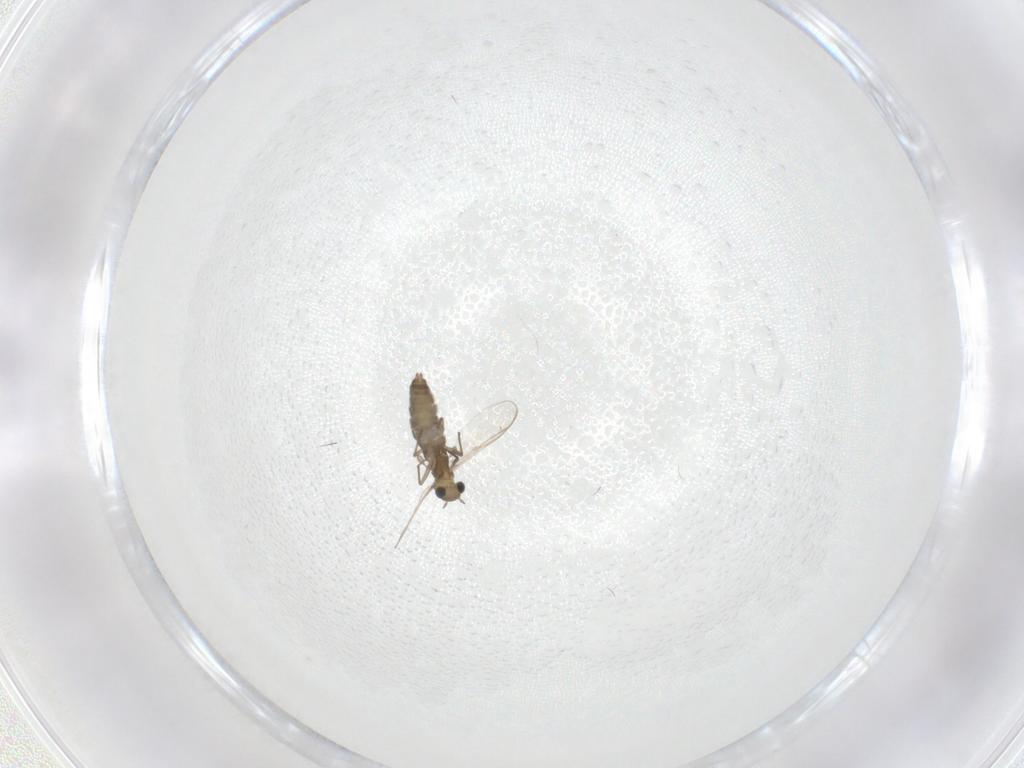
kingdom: Animalia
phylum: Arthropoda
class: Insecta
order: Diptera
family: Chironomidae
